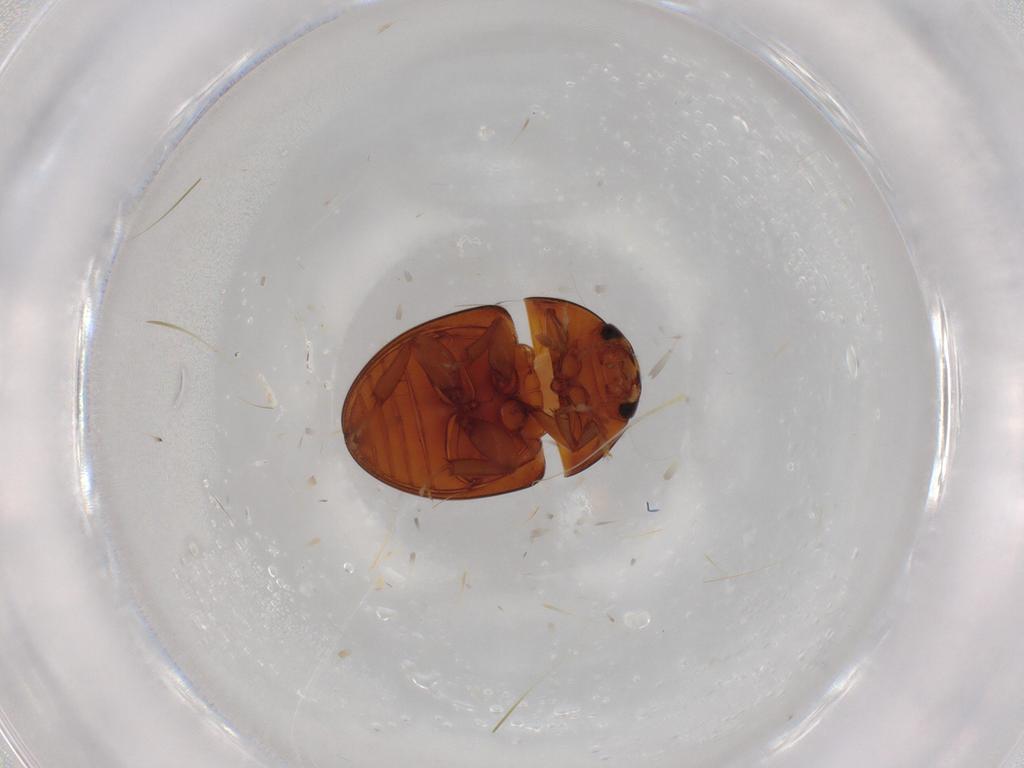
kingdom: Animalia
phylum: Arthropoda
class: Insecta
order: Coleoptera
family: Phalacridae
